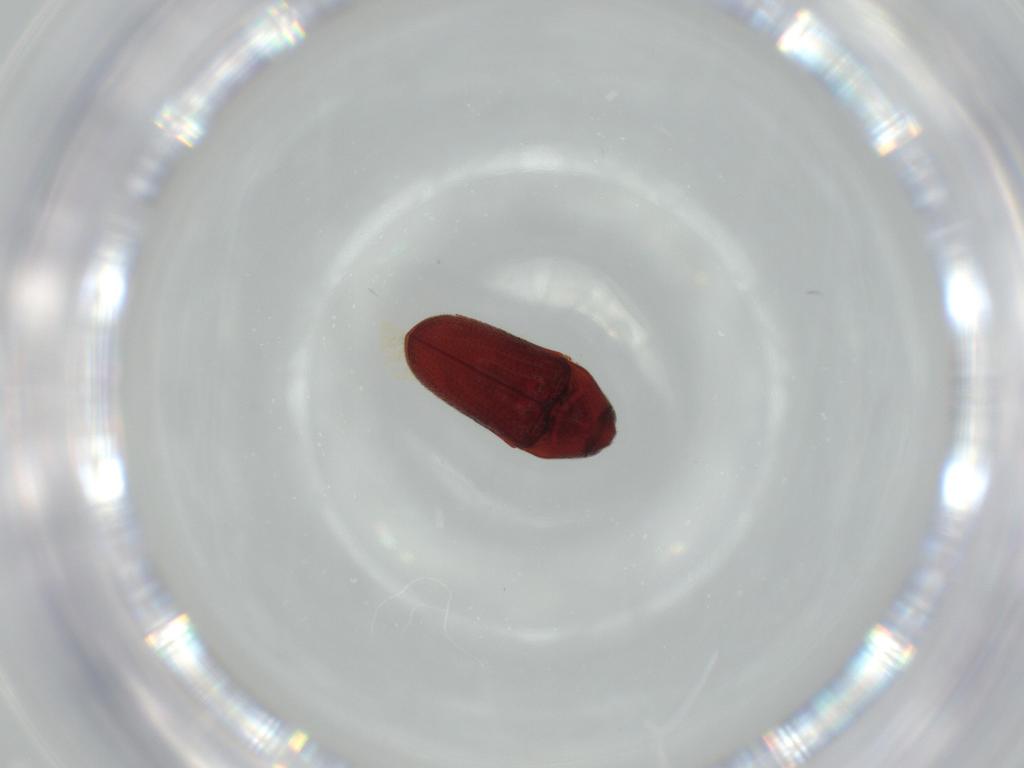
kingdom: Animalia
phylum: Arthropoda
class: Insecta
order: Coleoptera
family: Throscidae
